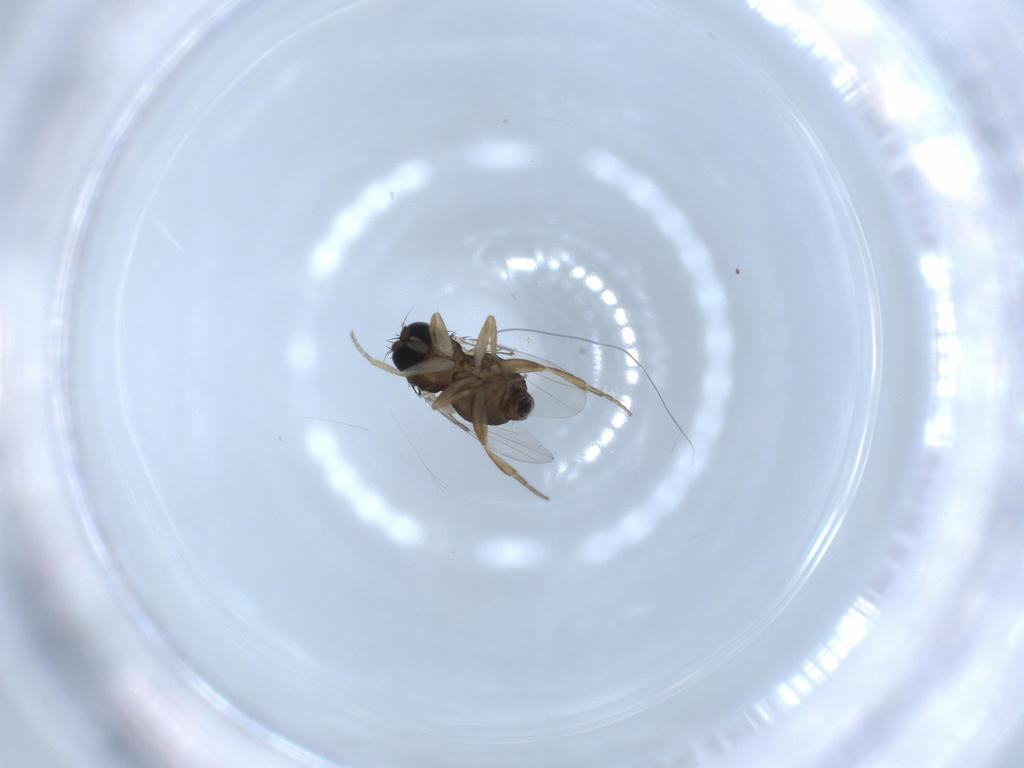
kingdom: Animalia
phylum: Arthropoda
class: Insecta
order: Diptera
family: Phoridae
